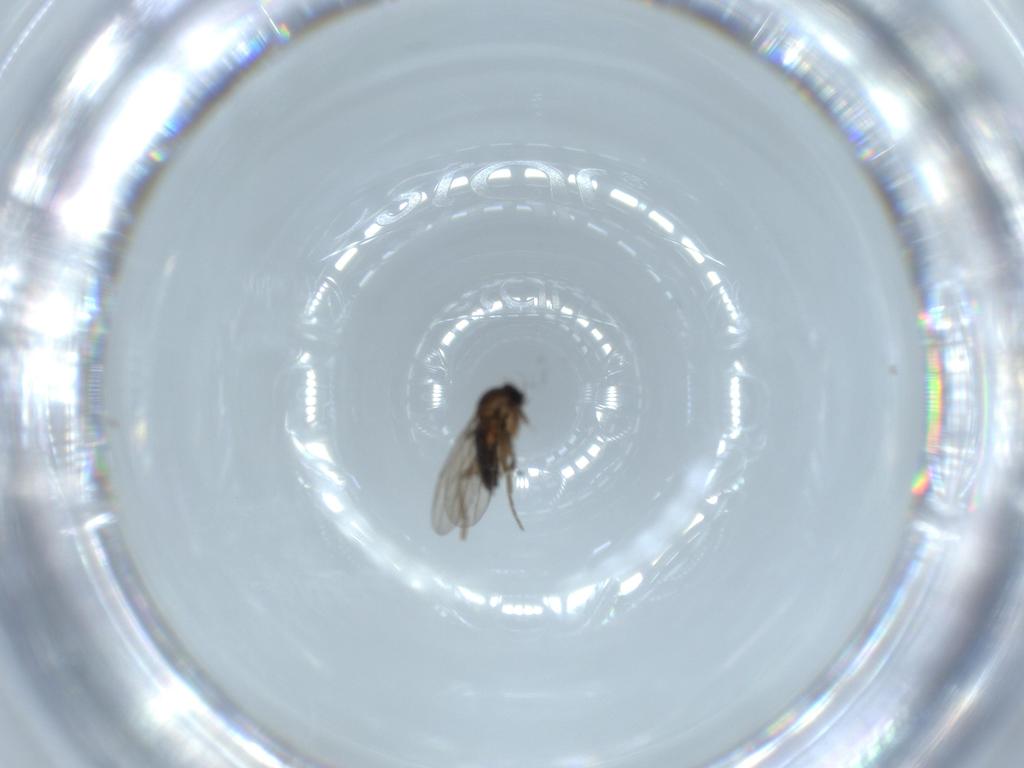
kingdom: Animalia
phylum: Arthropoda
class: Insecta
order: Diptera
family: Phoridae
